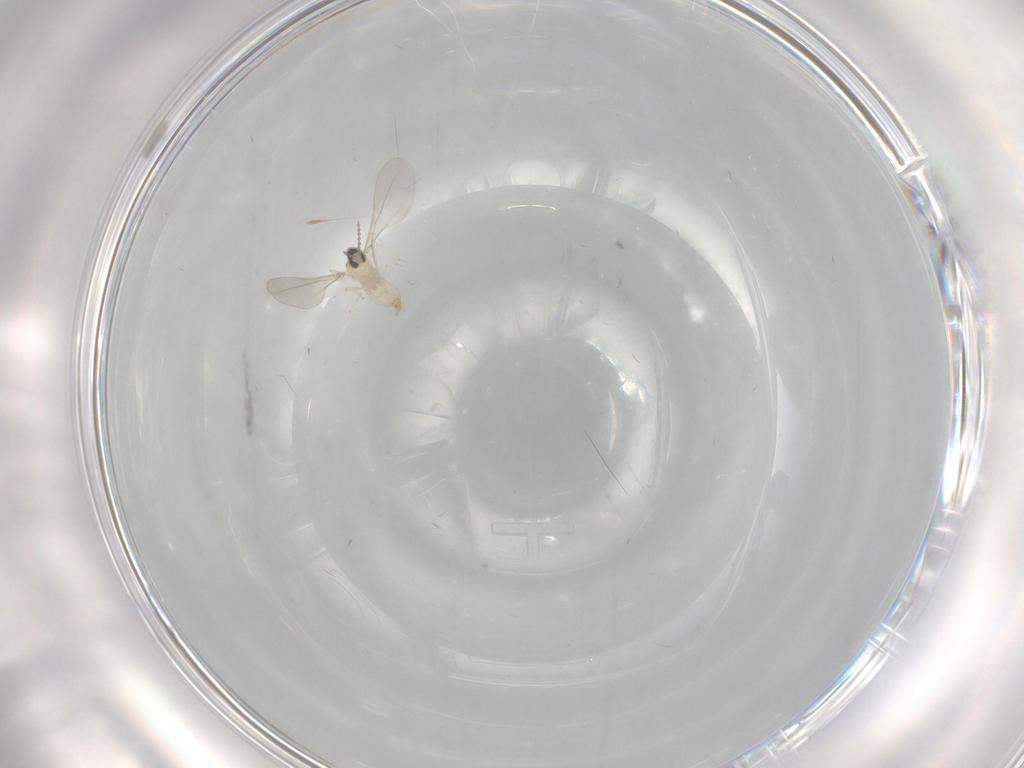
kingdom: Animalia
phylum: Arthropoda
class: Insecta
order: Diptera
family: Cecidomyiidae
